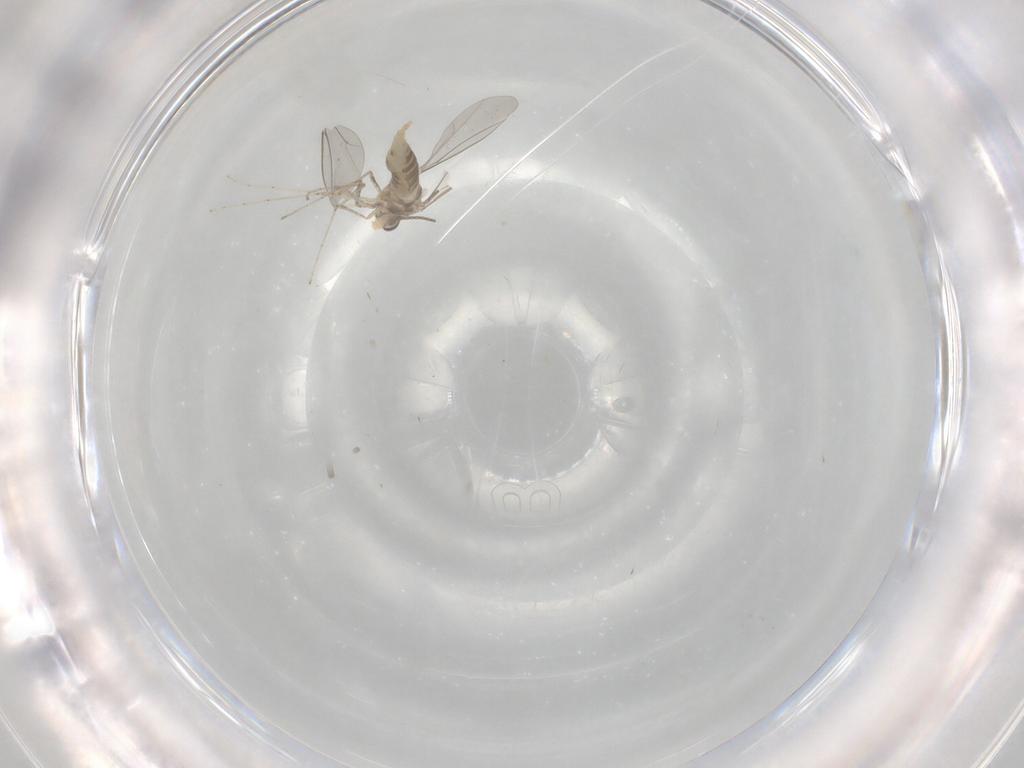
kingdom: Animalia
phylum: Arthropoda
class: Insecta
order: Diptera
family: Cecidomyiidae
